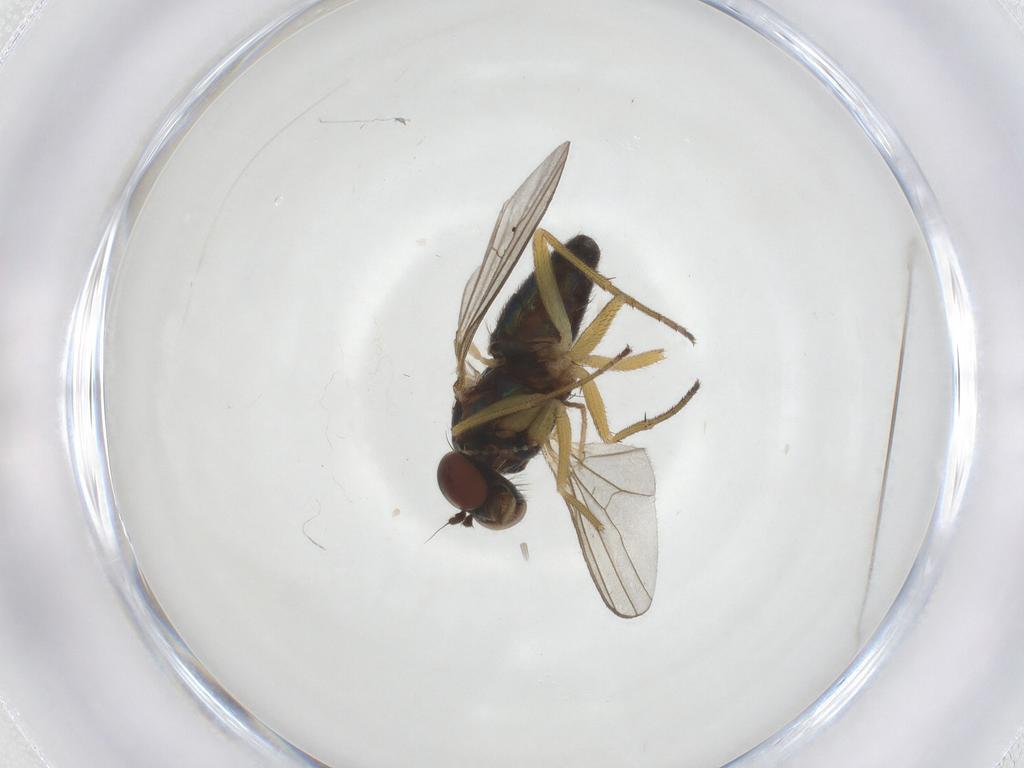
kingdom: Animalia
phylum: Arthropoda
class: Insecta
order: Diptera
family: Dolichopodidae
